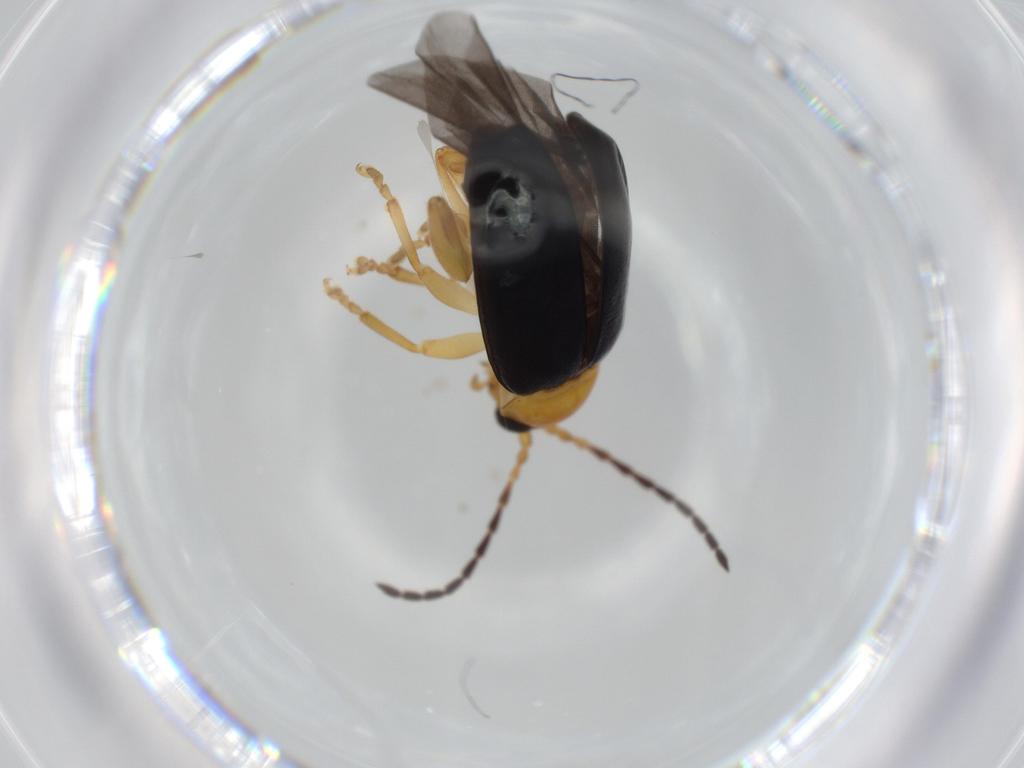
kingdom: Animalia
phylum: Arthropoda
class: Insecta
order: Coleoptera
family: Chrysomelidae
